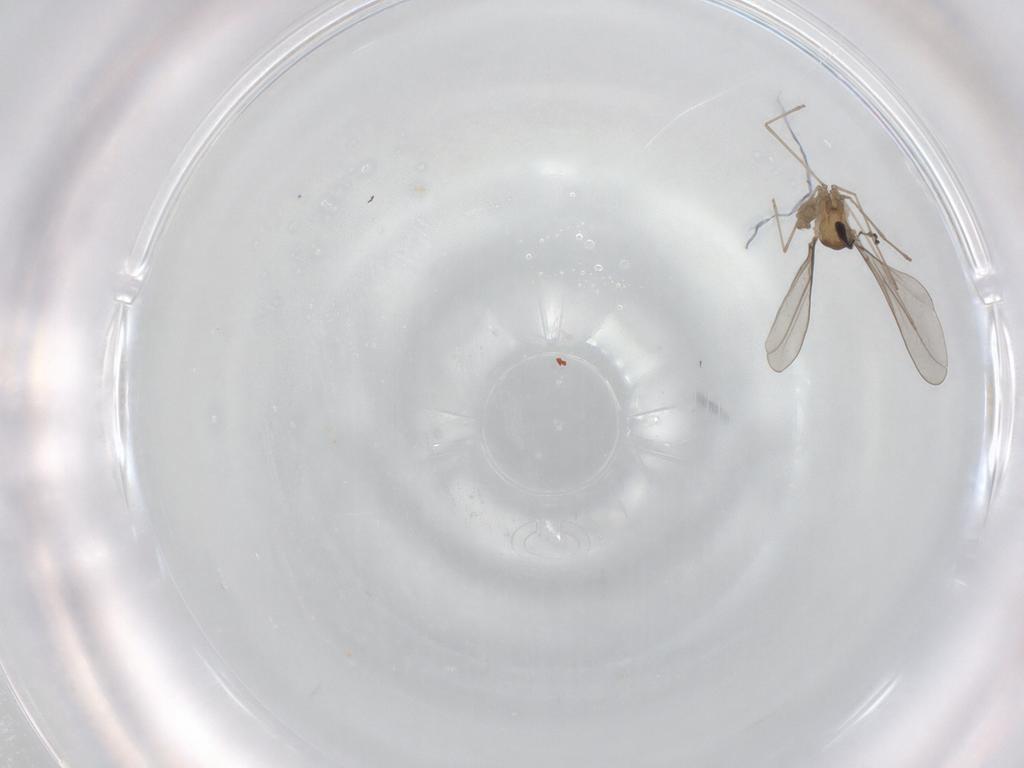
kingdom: Animalia
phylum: Arthropoda
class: Insecta
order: Diptera
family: Cecidomyiidae
